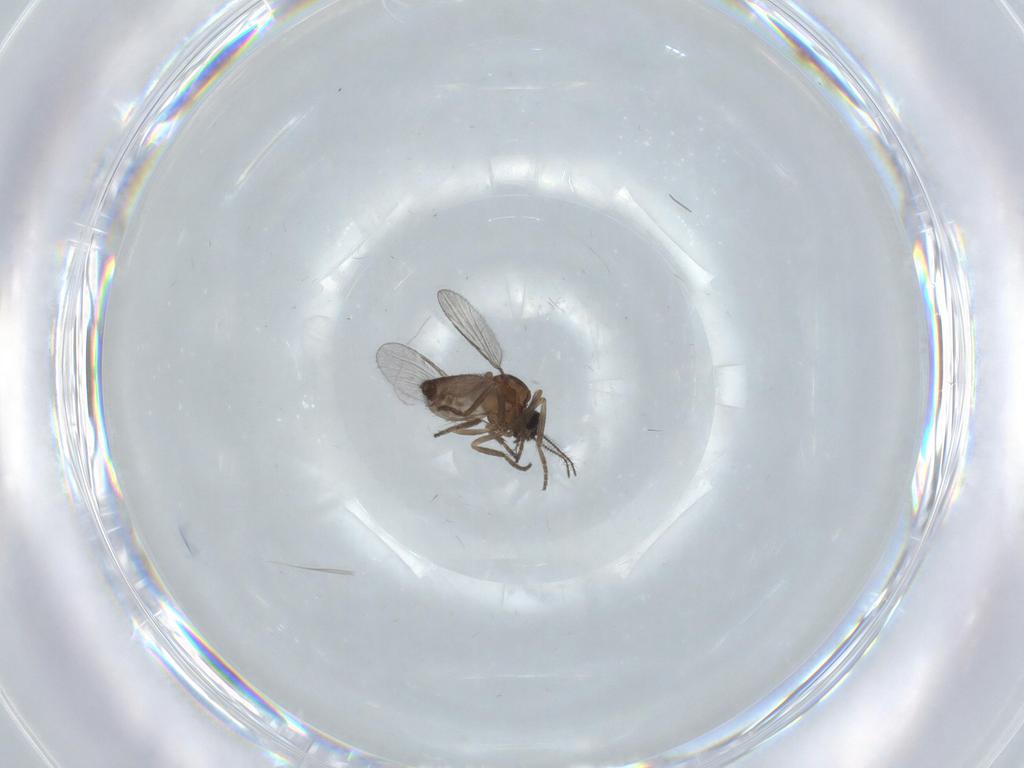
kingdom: Animalia
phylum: Arthropoda
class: Insecta
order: Diptera
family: Dolichopodidae
